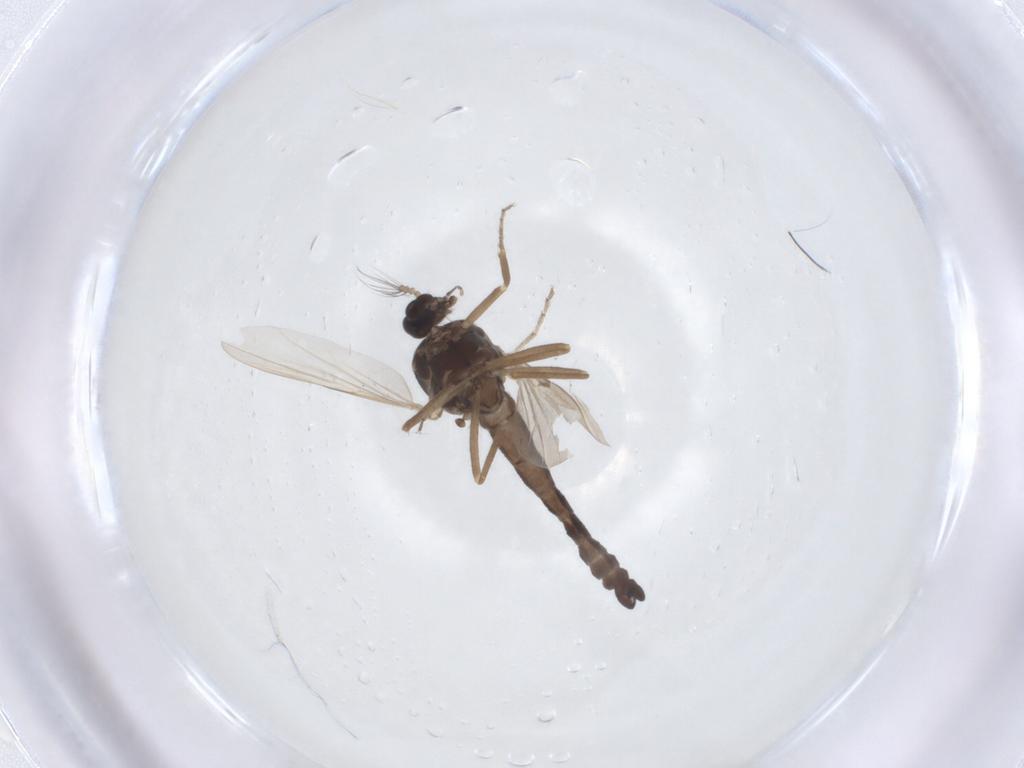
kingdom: Animalia
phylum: Arthropoda
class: Insecta
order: Diptera
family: Ceratopogonidae
